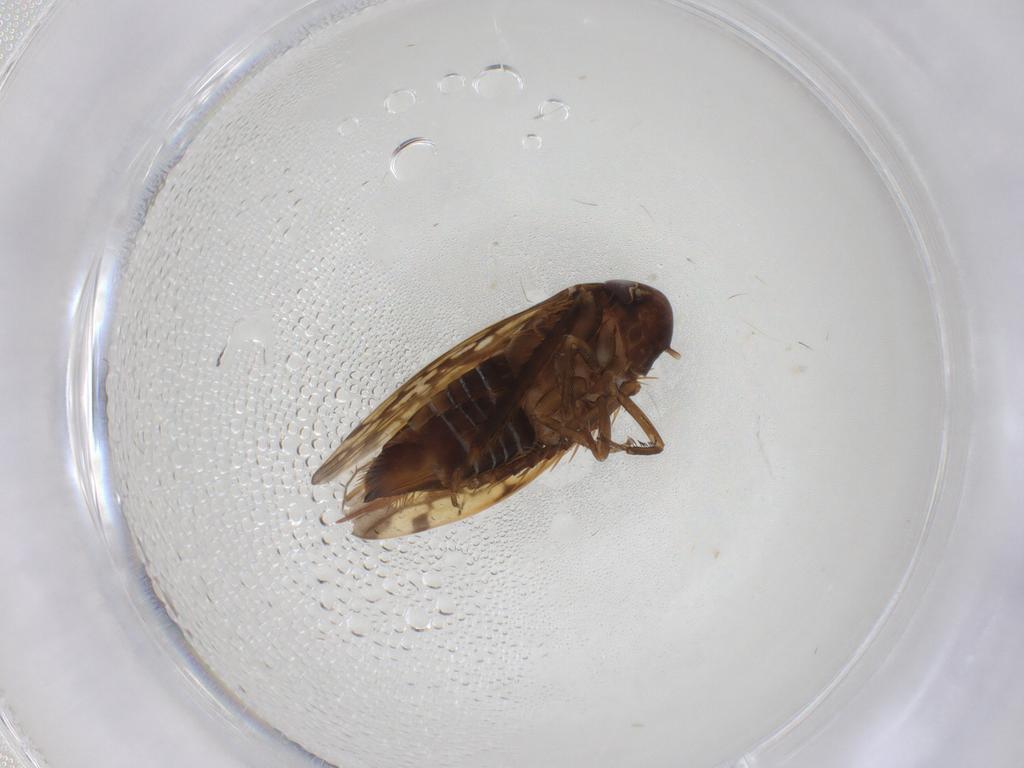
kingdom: Animalia
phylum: Arthropoda
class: Insecta
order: Hemiptera
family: Cicadellidae
